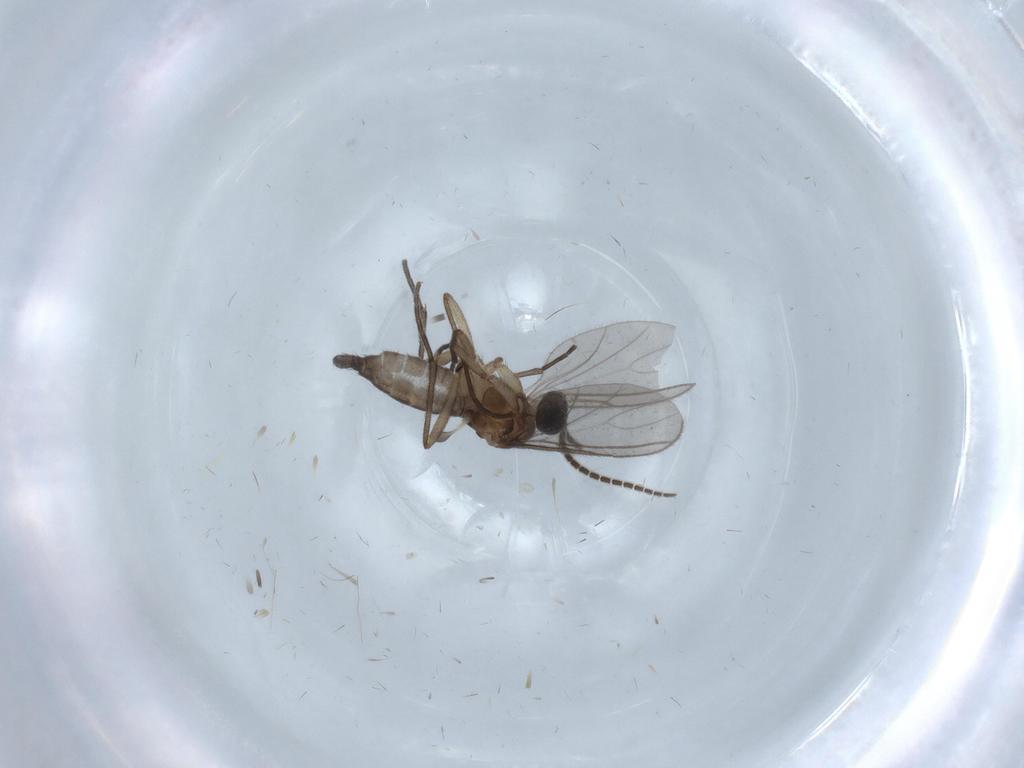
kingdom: Animalia
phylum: Arthropoda
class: Insecta
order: Diptera
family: Sciaridae
